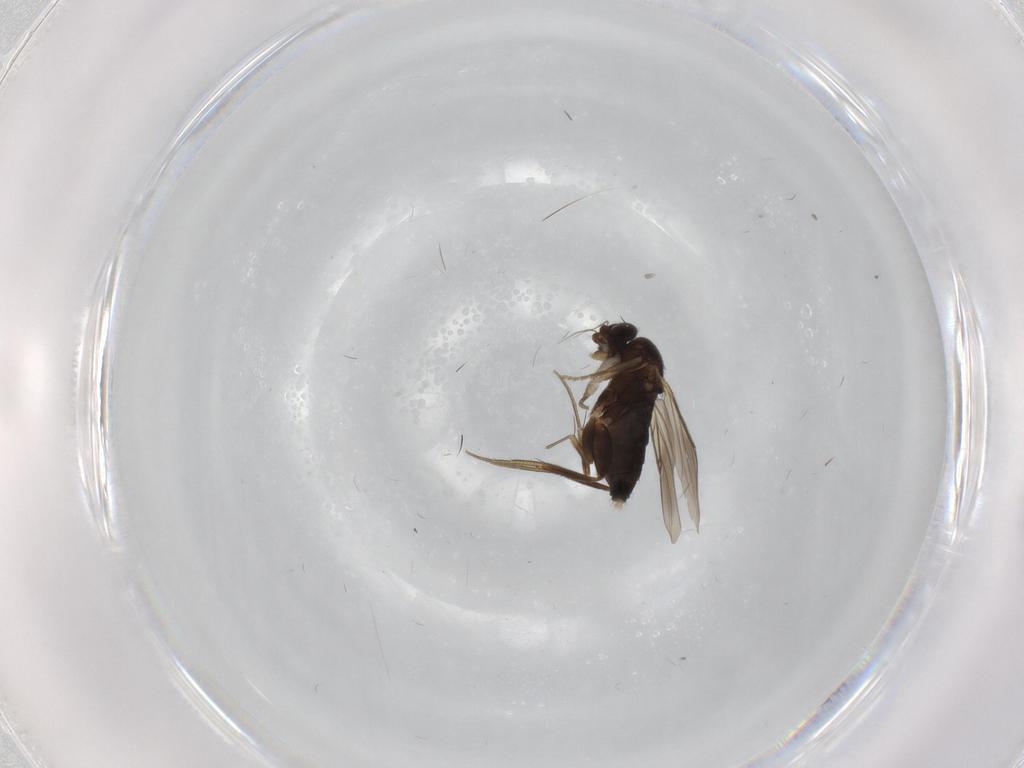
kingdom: Animalia
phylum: Arthropoda
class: Insecta
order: Diptera
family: Phoridae
